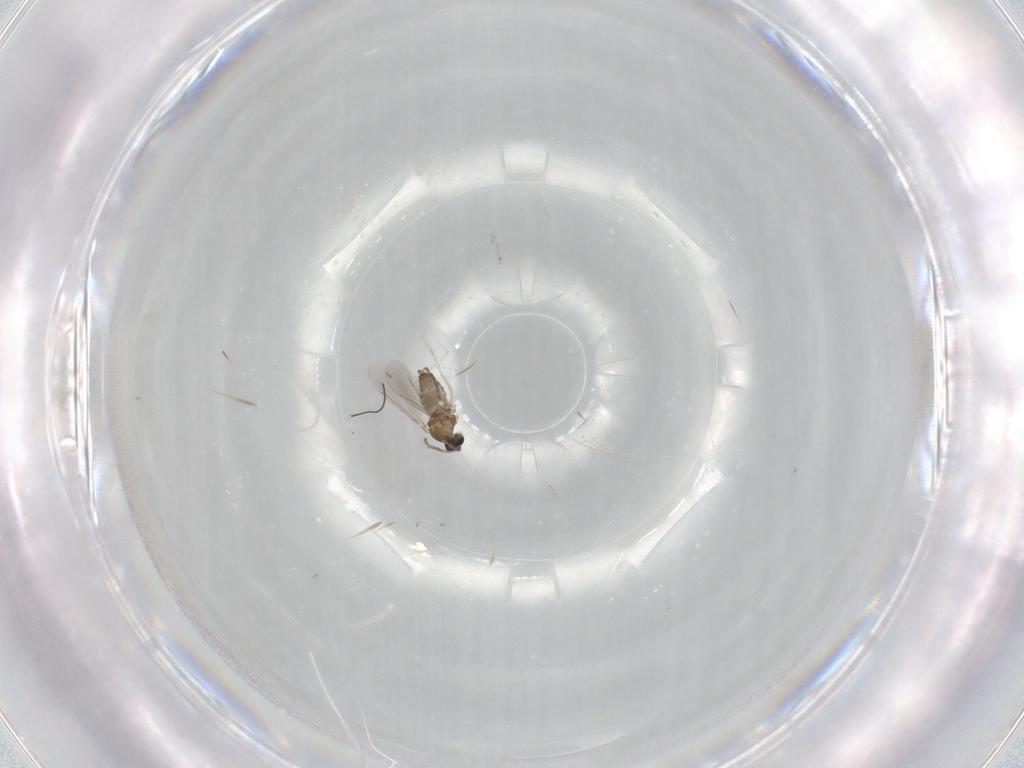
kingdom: Animalia
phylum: Arthropoda
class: Insecta
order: Diptera
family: Cecidomyiidae
